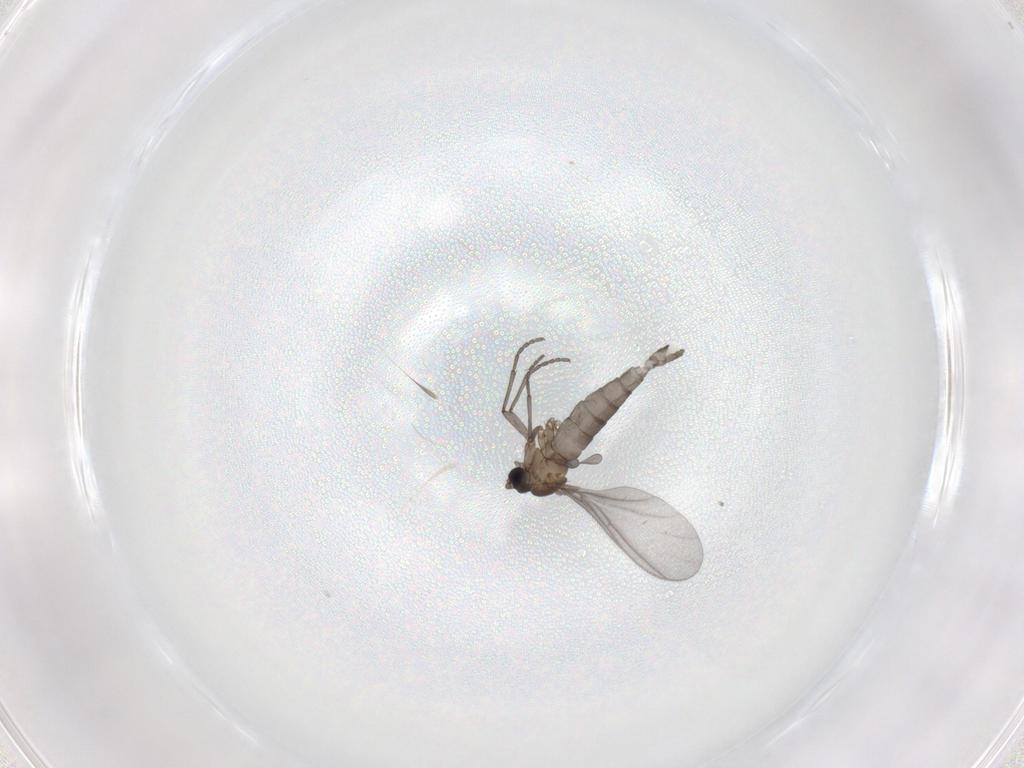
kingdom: Animalia
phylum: Arthropoda
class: Insecta
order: Diptera
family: Sciaridae
